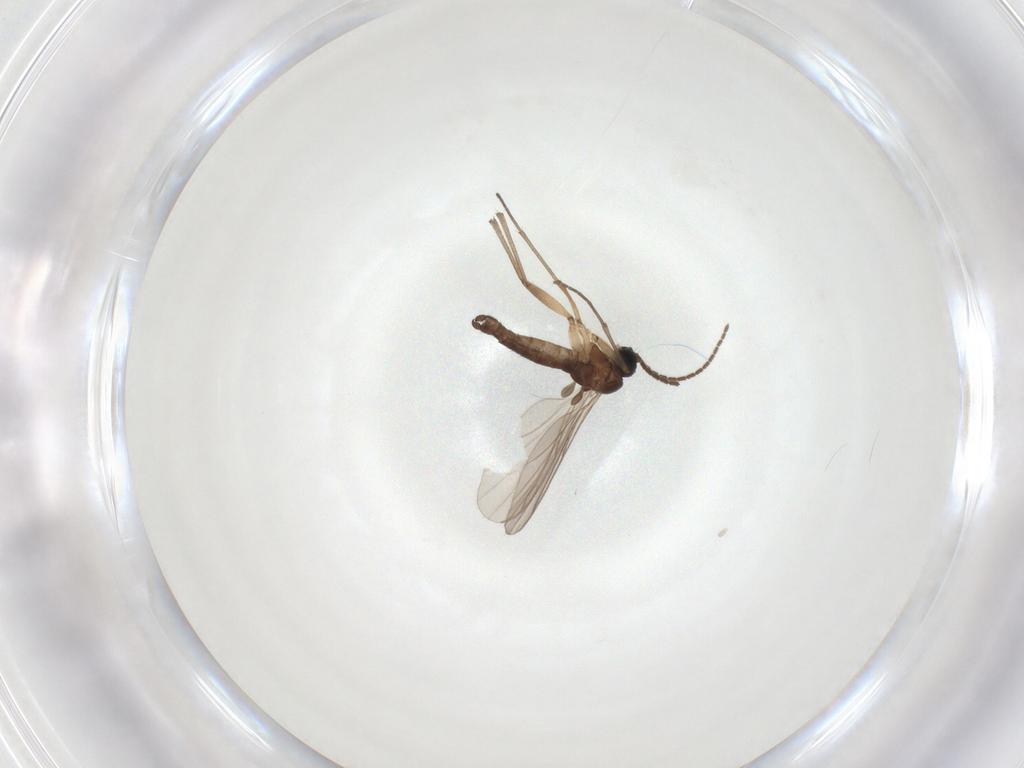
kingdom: Animalia
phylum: Arthropoda
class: Insecta
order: Diptera
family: Sciaridae
